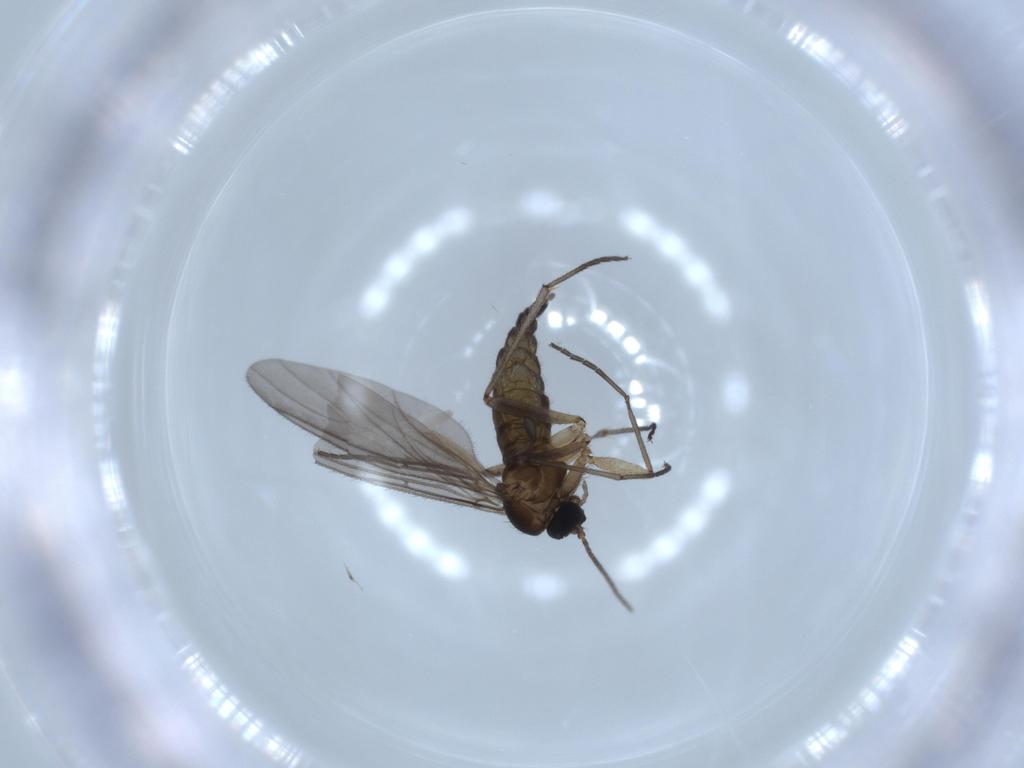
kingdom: Animalia
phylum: Arthropoda
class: Insecta
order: Diptera
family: Sciaridae
